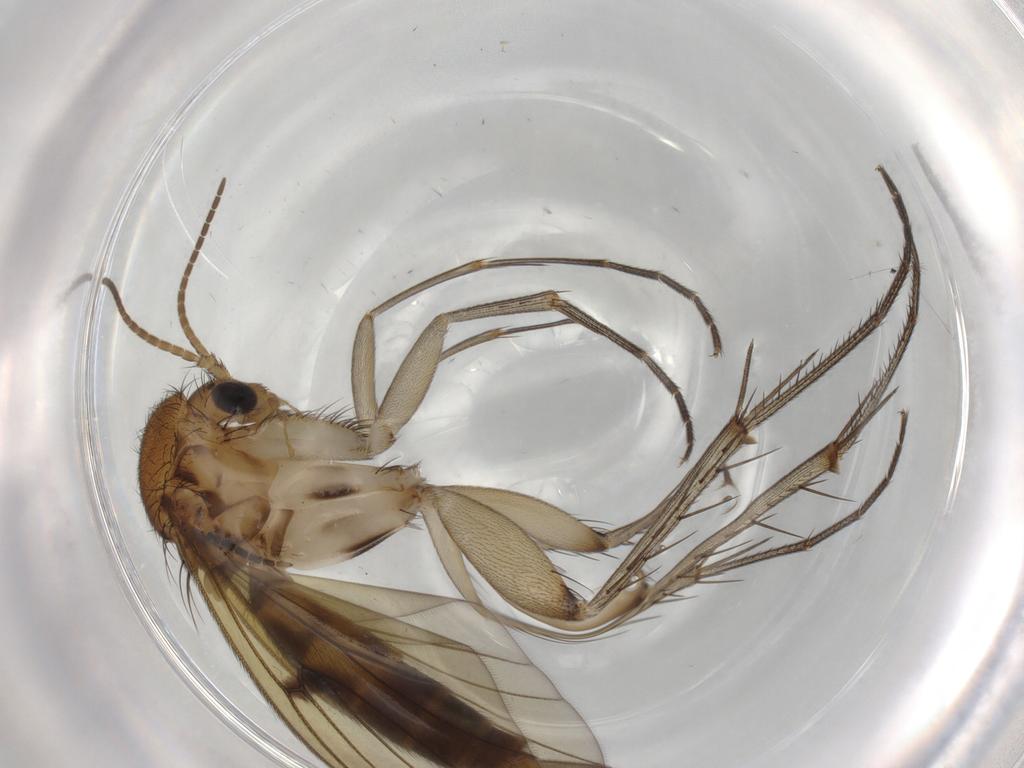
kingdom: Animalia
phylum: Arthropoda
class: Insecta
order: Diptera
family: Mycetophilidae
